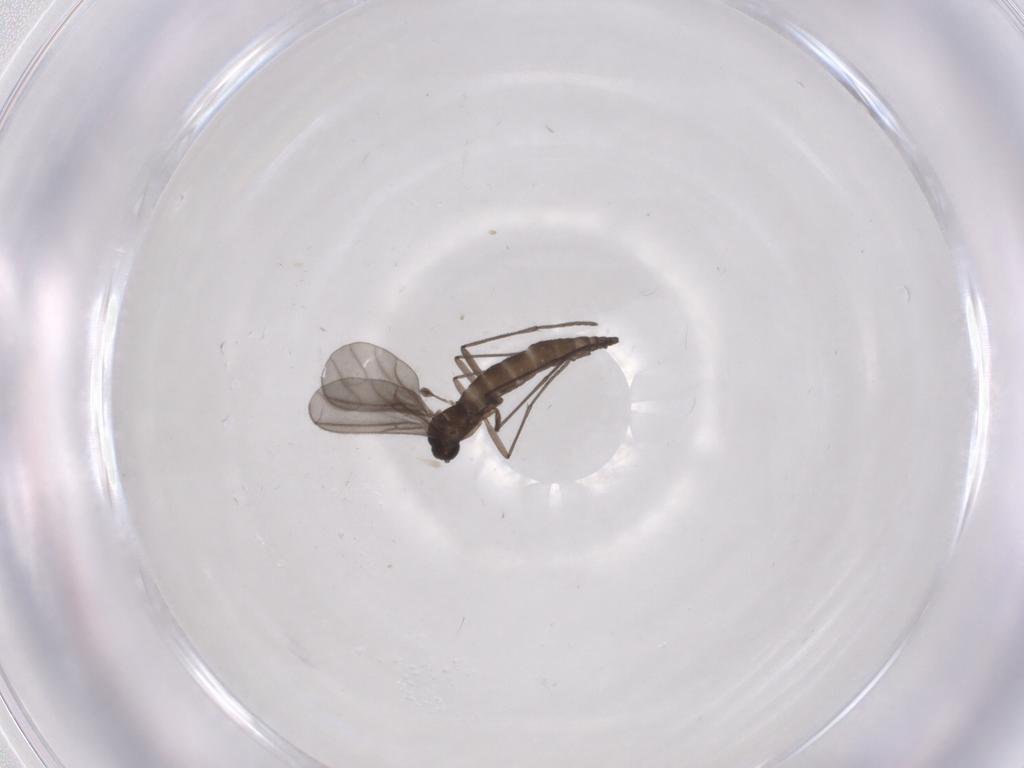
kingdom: Animalia
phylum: Arthropoda
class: Insecta
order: Diptera
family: Sciaridae
